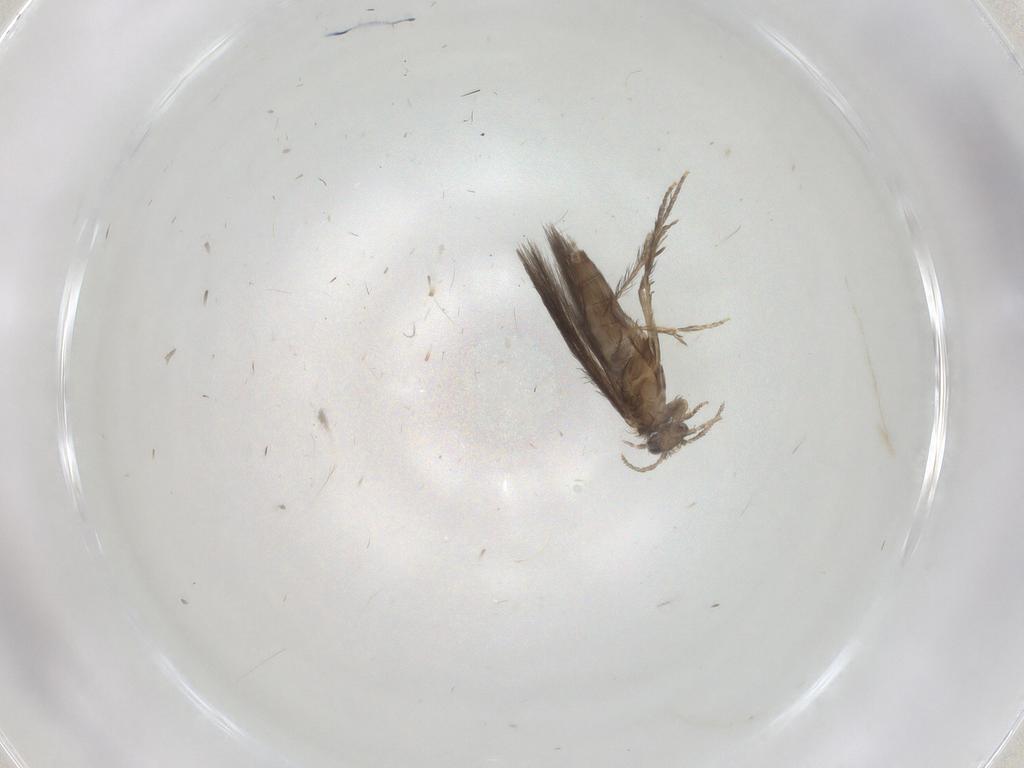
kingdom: Animalia
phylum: Arthropoda
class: Insecta
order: Trichoptera
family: Hydroptilidae
